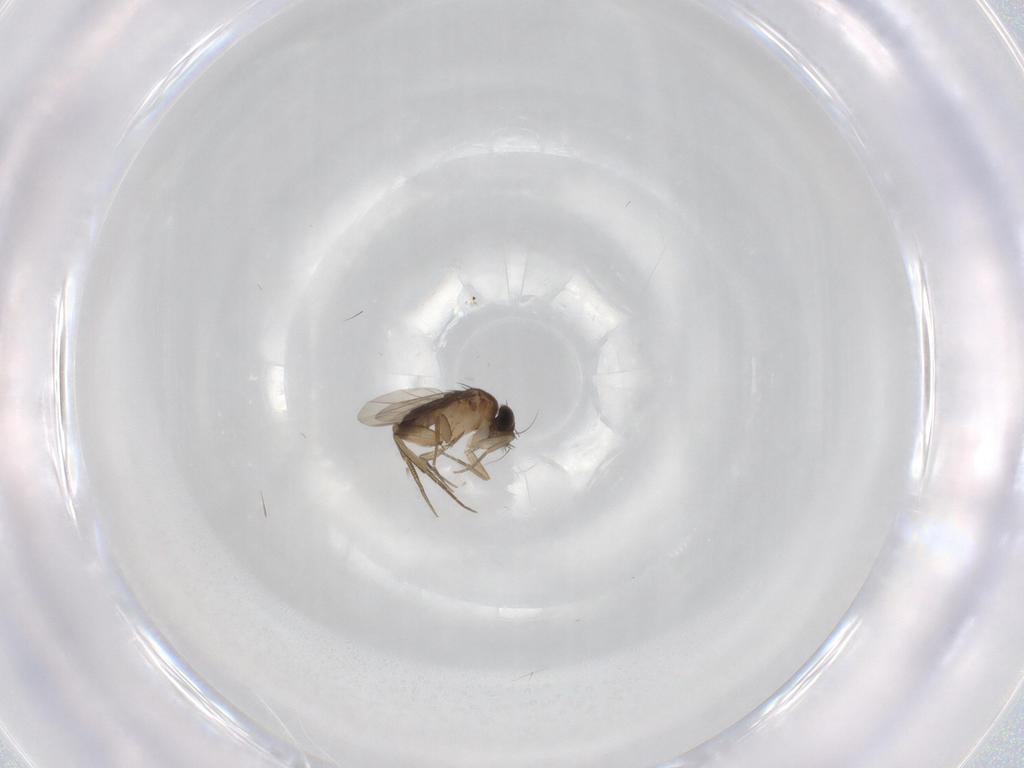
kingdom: Animalia
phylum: Arthropoda
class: Insecta
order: Diptera
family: Phoridae
